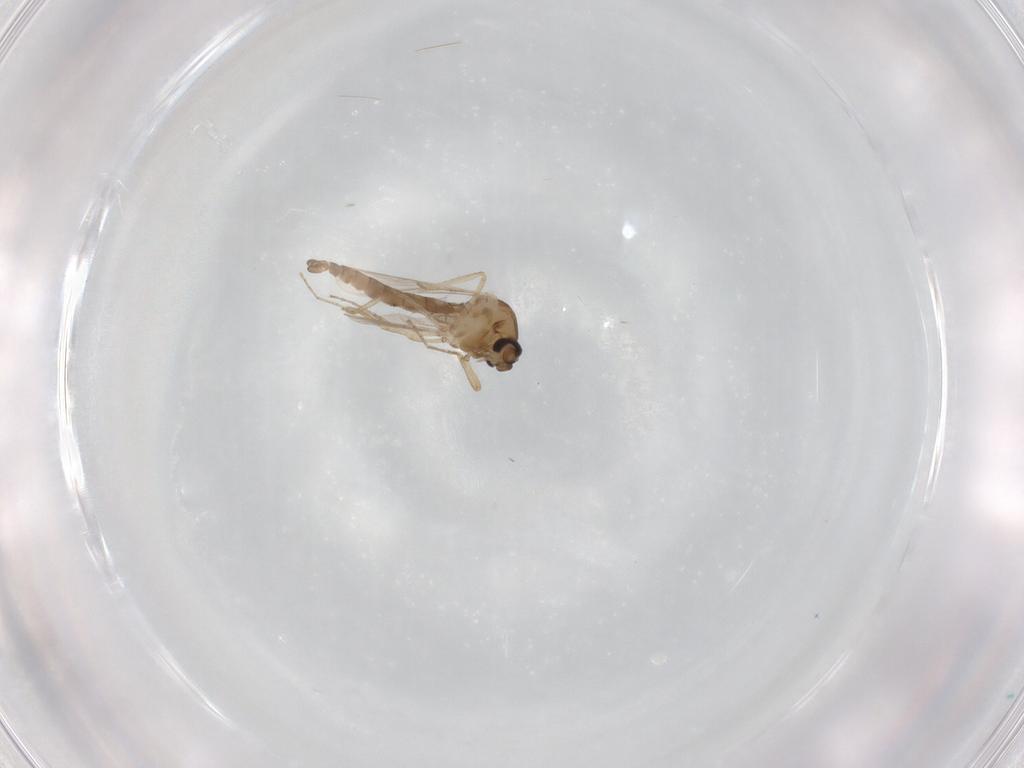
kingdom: Animalia
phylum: Arthropoda
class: Insecta
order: Diptera
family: Ceratopogonidae
